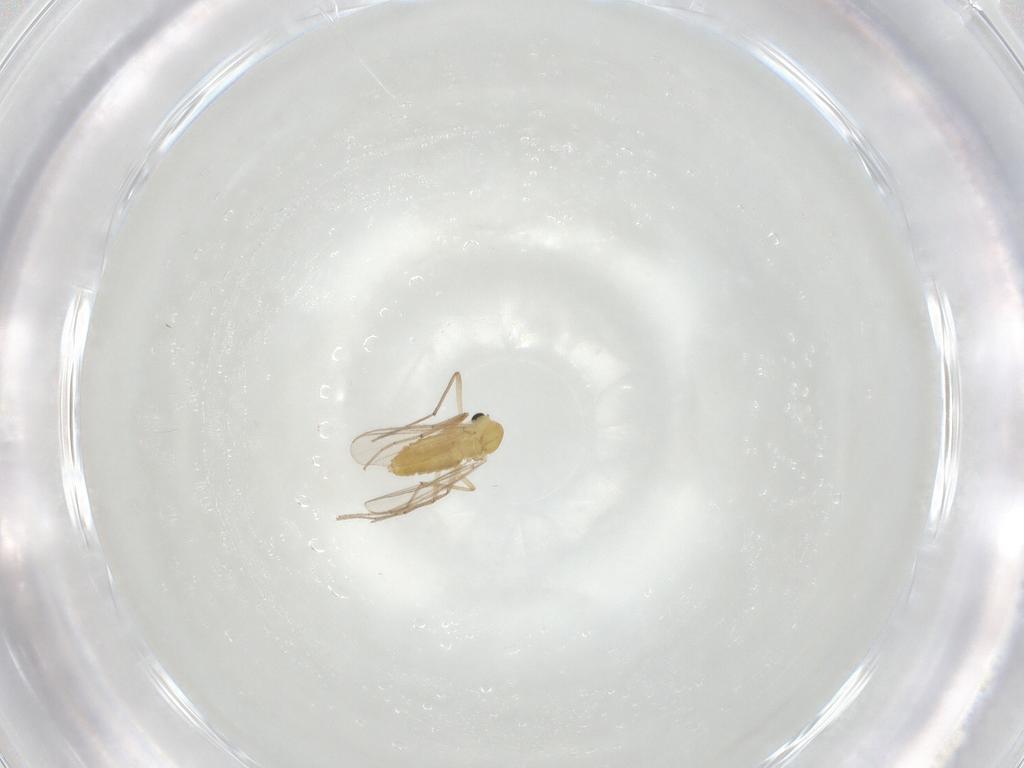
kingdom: Animalia
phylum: Arthropoda
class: Insecta
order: Diptera
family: Chironomidae
